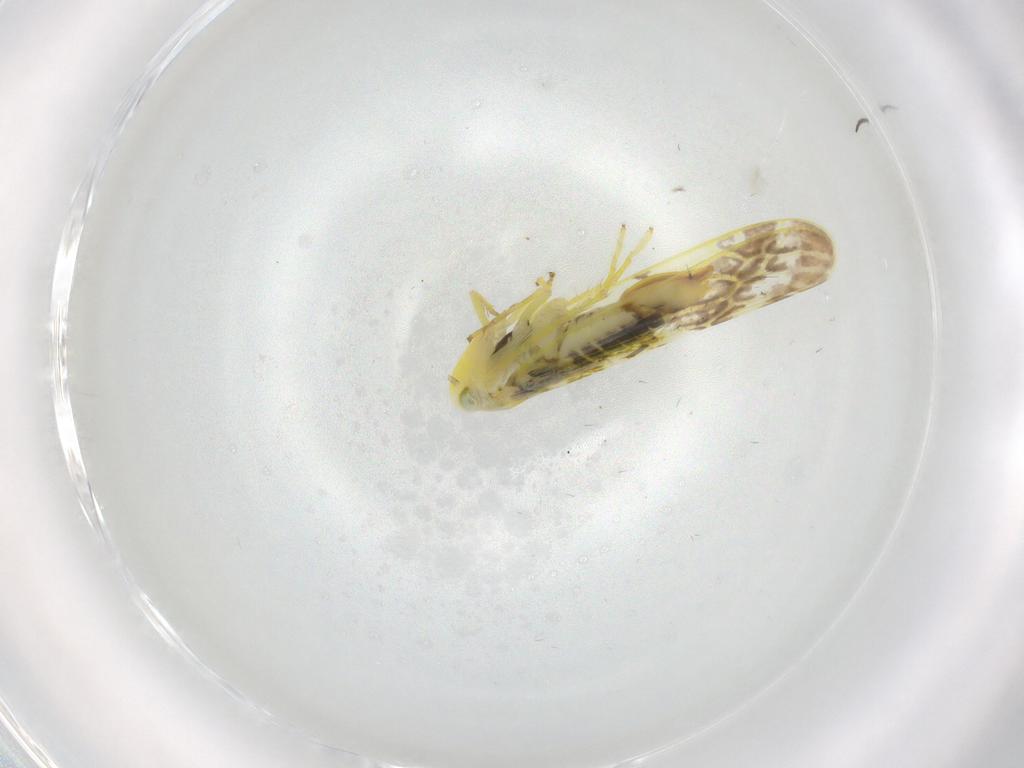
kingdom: Animalia
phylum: Arthropoda
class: Insecta
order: Hemiptera
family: Cicadellidae
